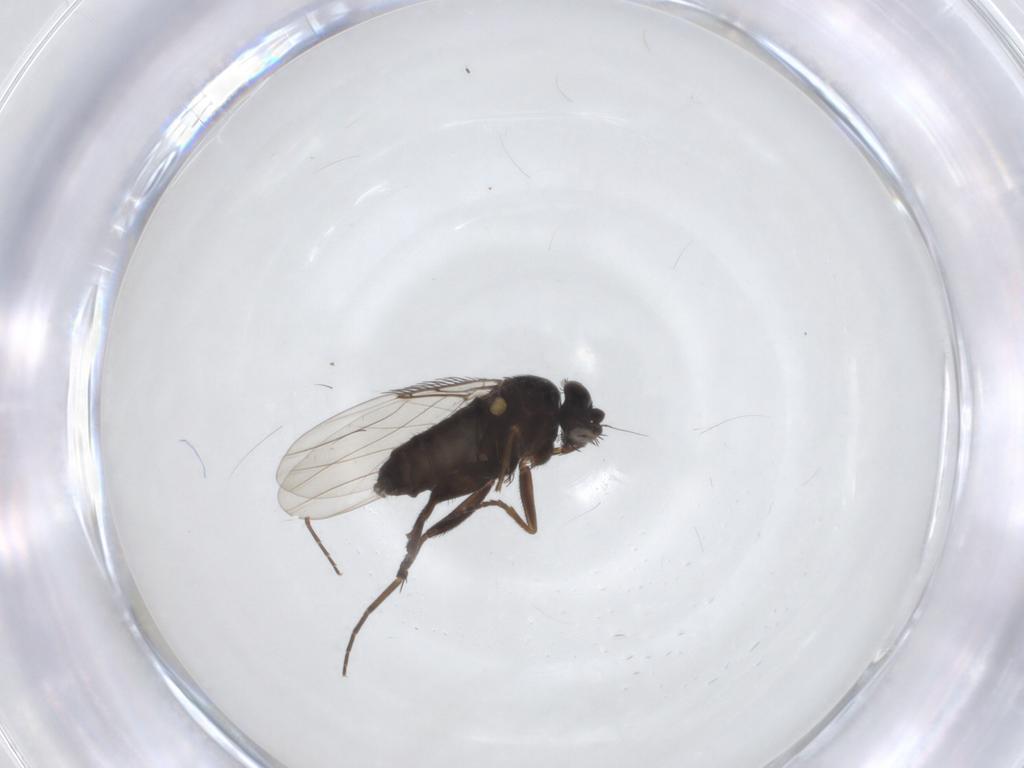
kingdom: Animalia
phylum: Arthropoda
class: Insecta
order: Diptera
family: Phoridae
